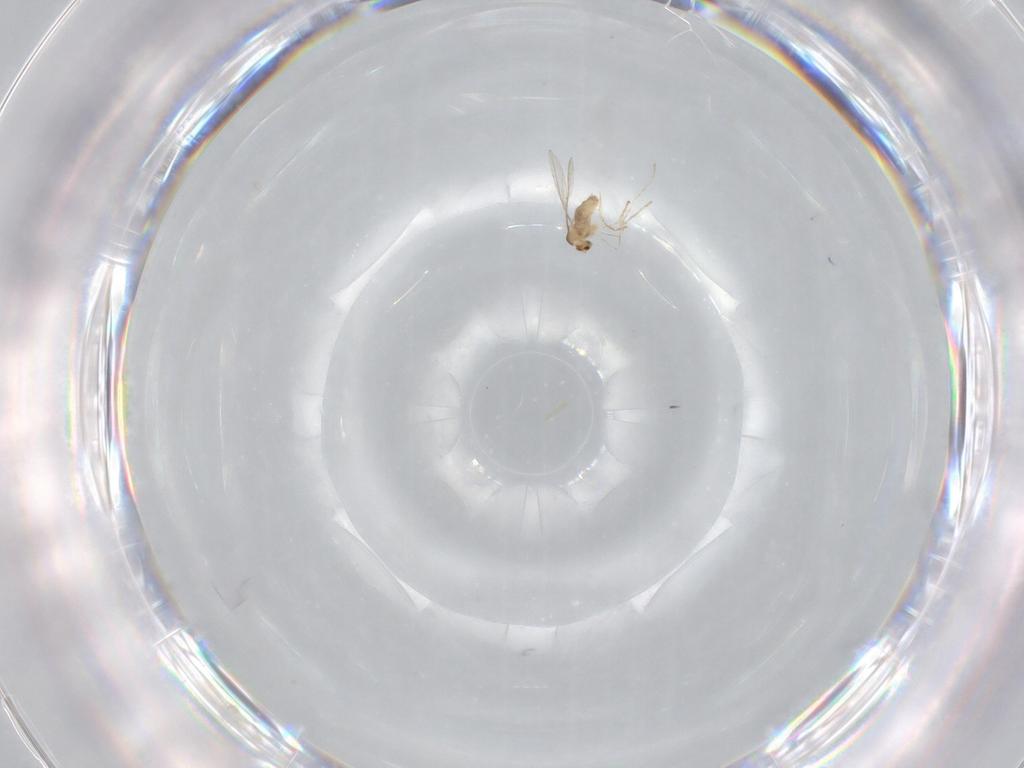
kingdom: Animalia
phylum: Arthropoda
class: Insecta
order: Diptera
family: Cecidomyiidae
